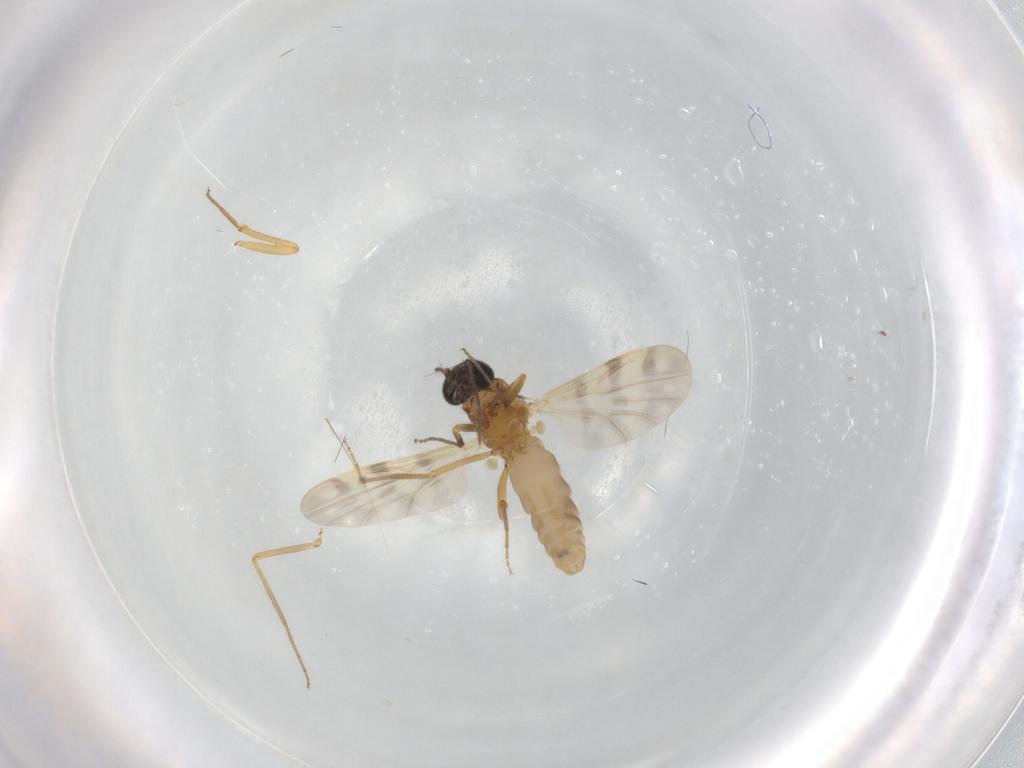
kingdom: Animalia
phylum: Arthropoda
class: Insecta
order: Diptera
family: Ceratopogonidae
